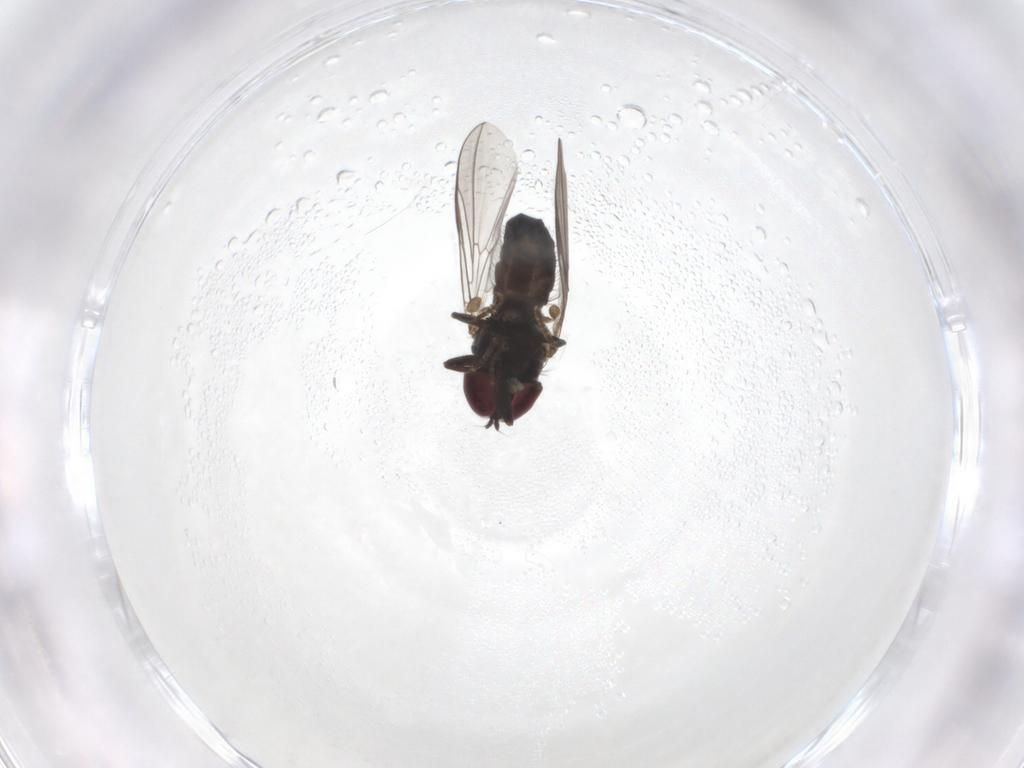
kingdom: Animalia
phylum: Arthropoda
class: Insecta
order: Diptera
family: Pipunculidae
